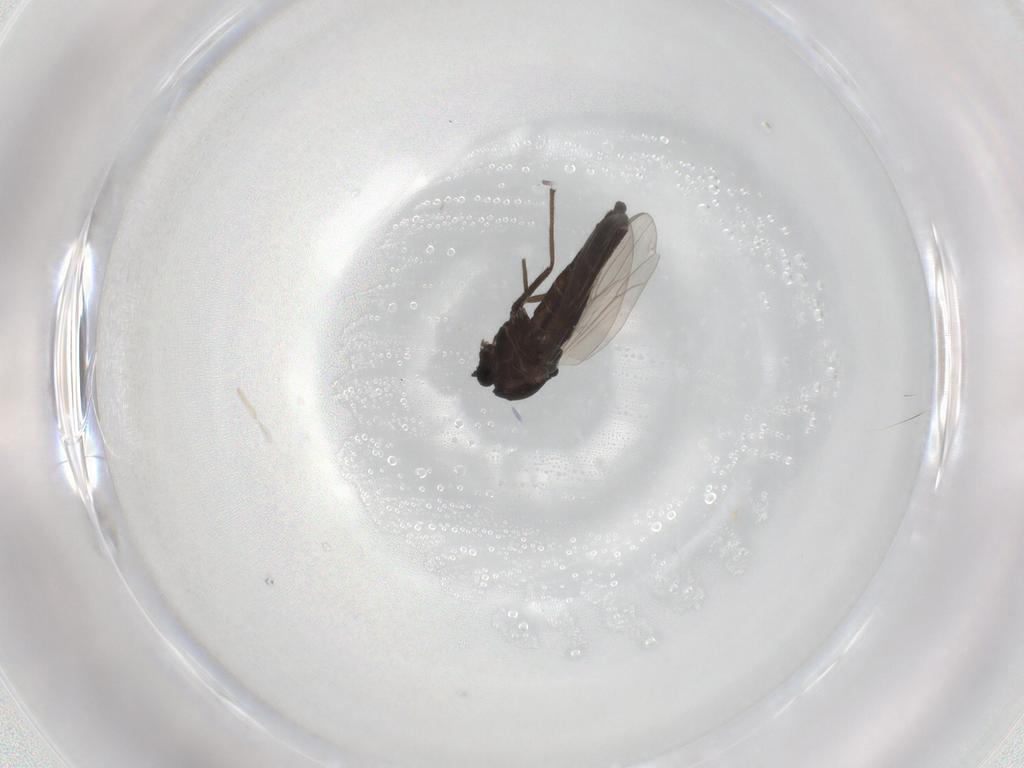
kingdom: Animalia
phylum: Arthropoda
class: Insecta
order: Diptera
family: Chironomidae
